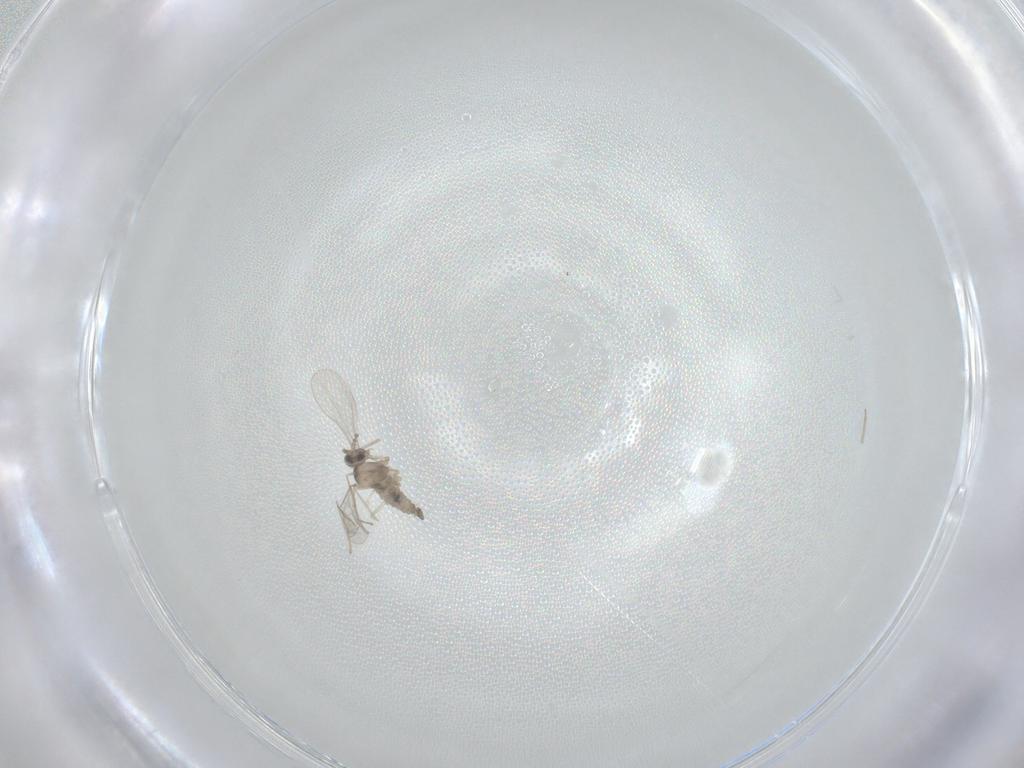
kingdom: Animalia
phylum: Arthropoda
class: Insecta
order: Diptera
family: Cecidomyiidae
